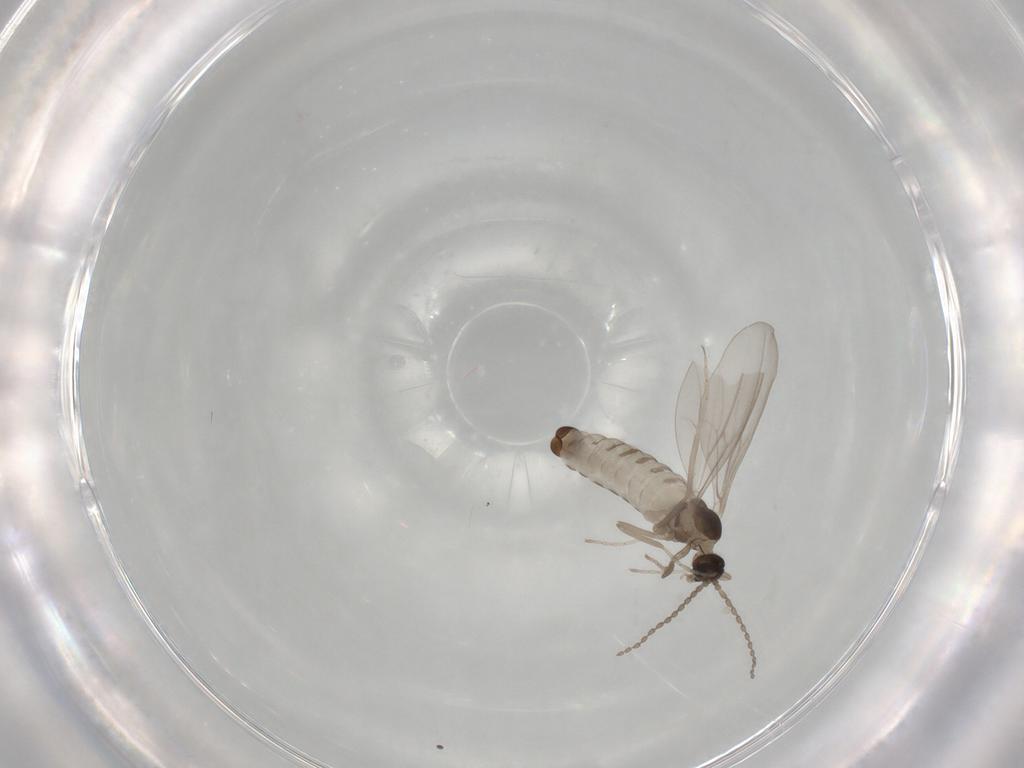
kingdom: Animalia
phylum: Arthropoda
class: Insecta
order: Diptera
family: Cecidomyiidae
